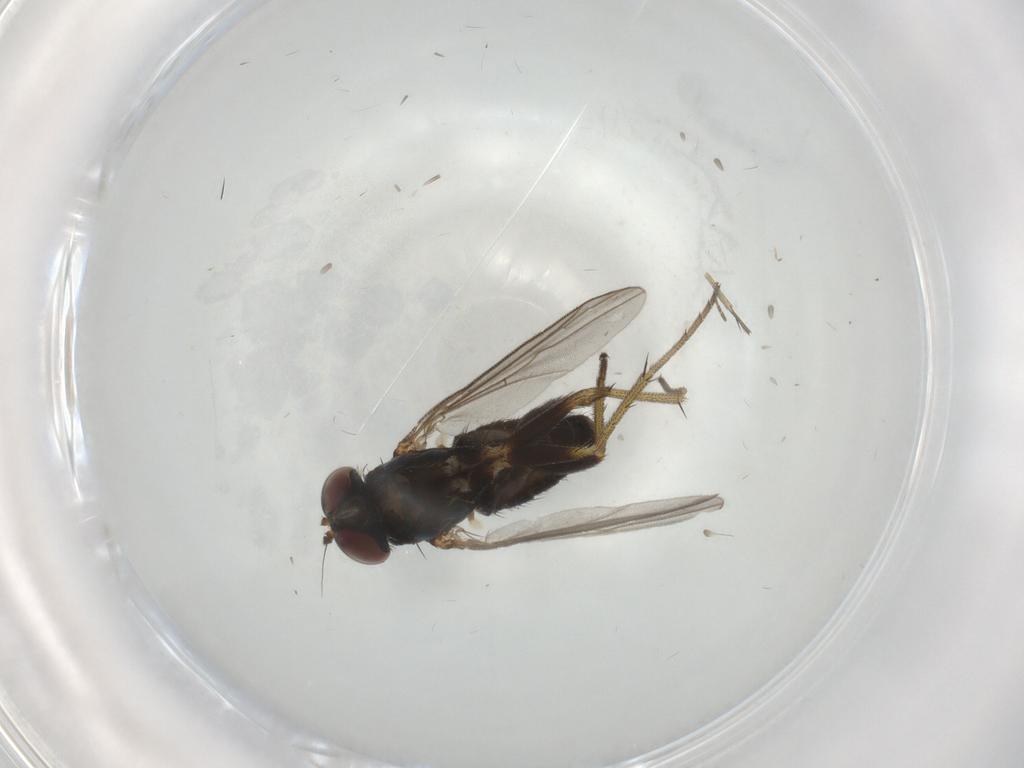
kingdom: Animalia
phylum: Arthropoda
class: Insecta
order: Diptera
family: Phoridae
